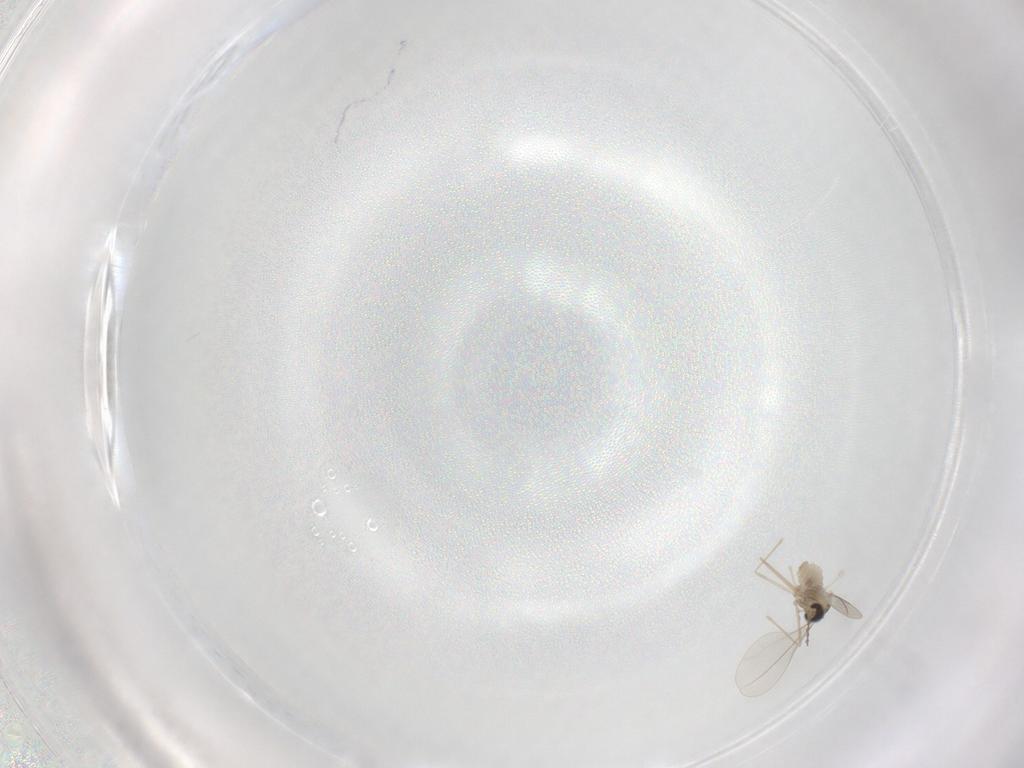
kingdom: Animalia
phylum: Arthropoda
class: Insecta
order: Diptera
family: Cecidomyiidae
